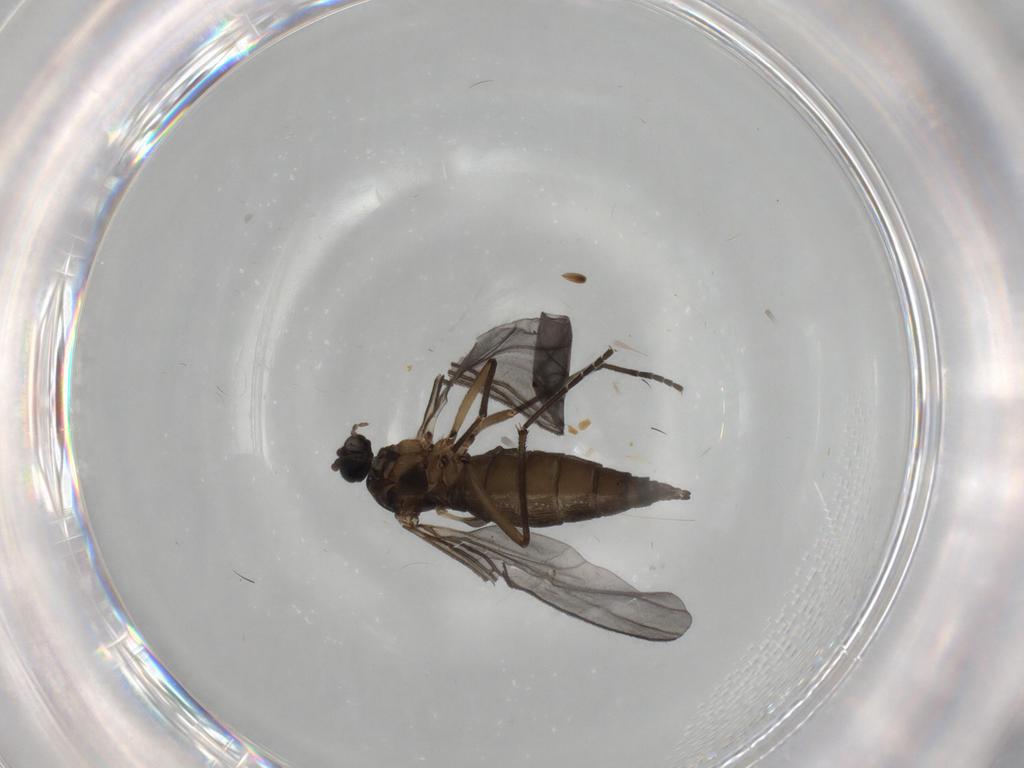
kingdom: Animalia
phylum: Arthropoda
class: Insecta
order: Diptera
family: Sciaridae
